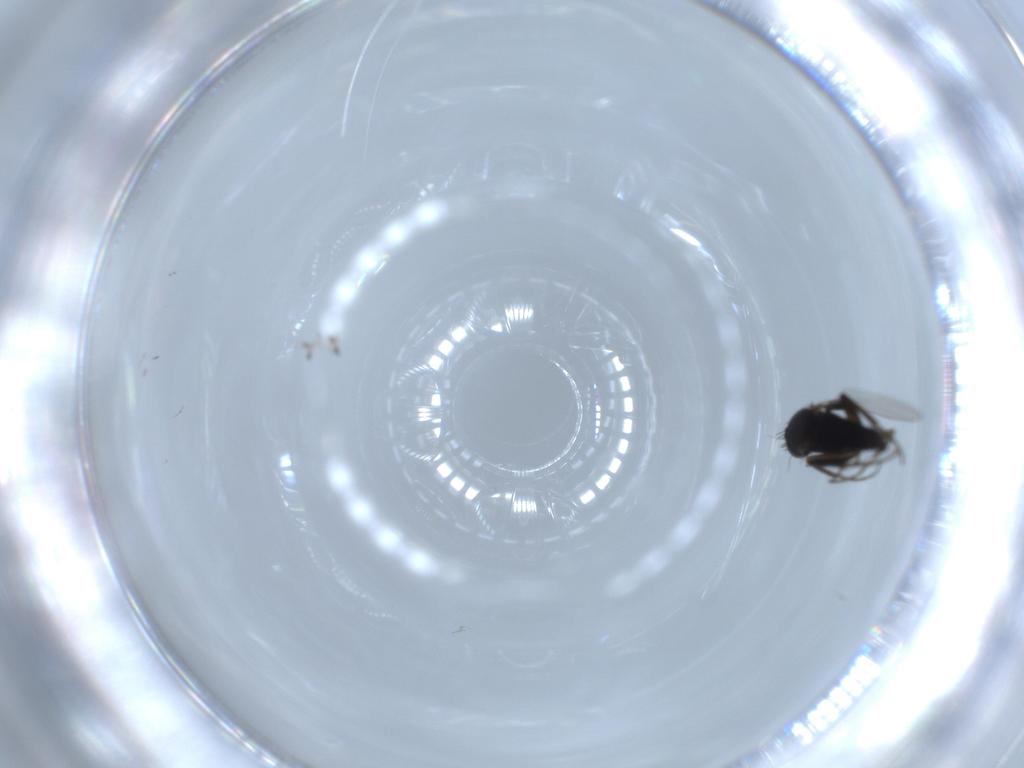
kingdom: Animalia
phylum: Arthropoda
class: Insecta
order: Diptera
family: Phoridae
